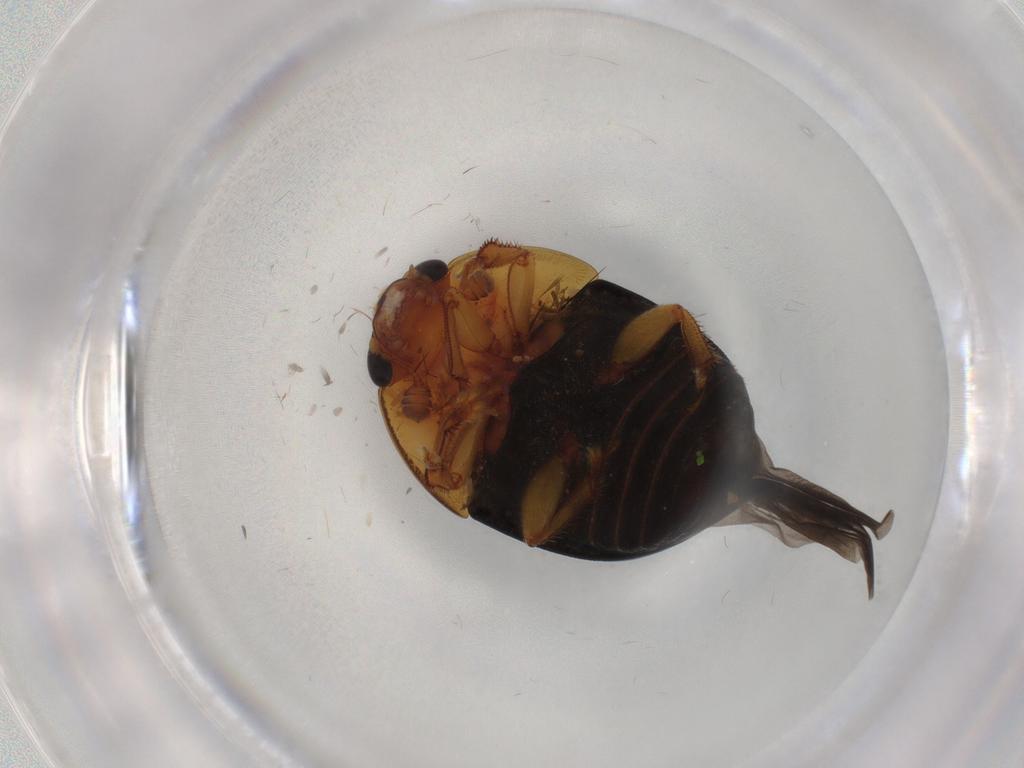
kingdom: Animalia
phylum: Arthropoda
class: Insecta
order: Coleoptera
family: Nitidulidae
